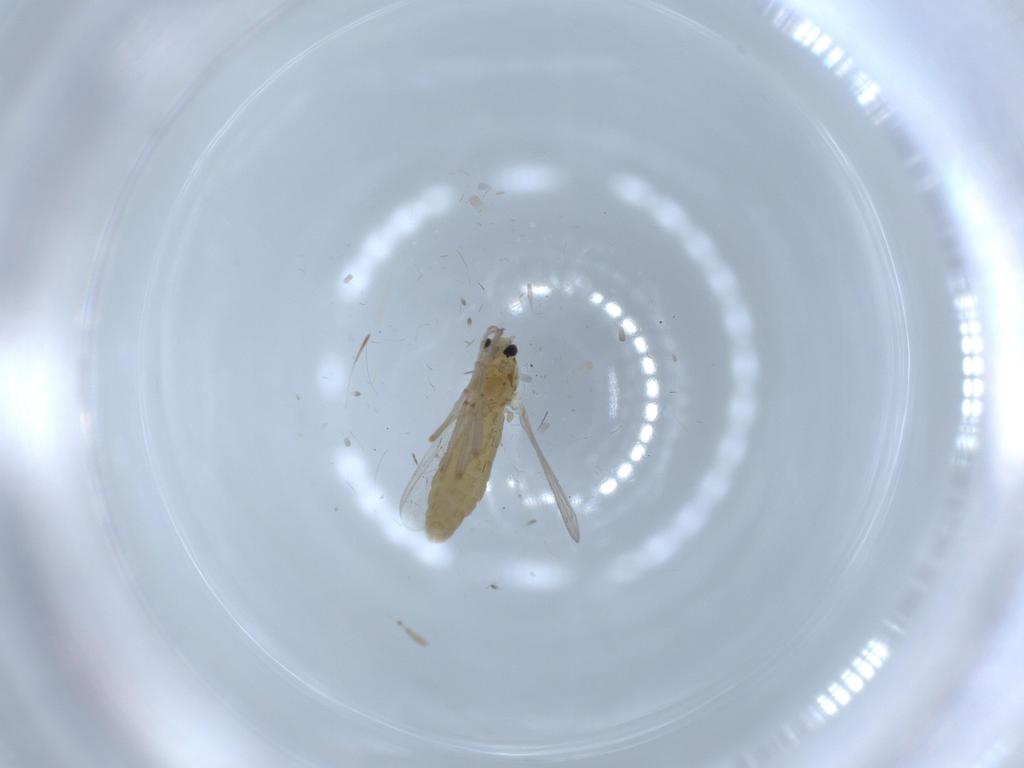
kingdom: Animalia
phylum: Arthropoda
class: Insecta
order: Diptera
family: Chironomidae
